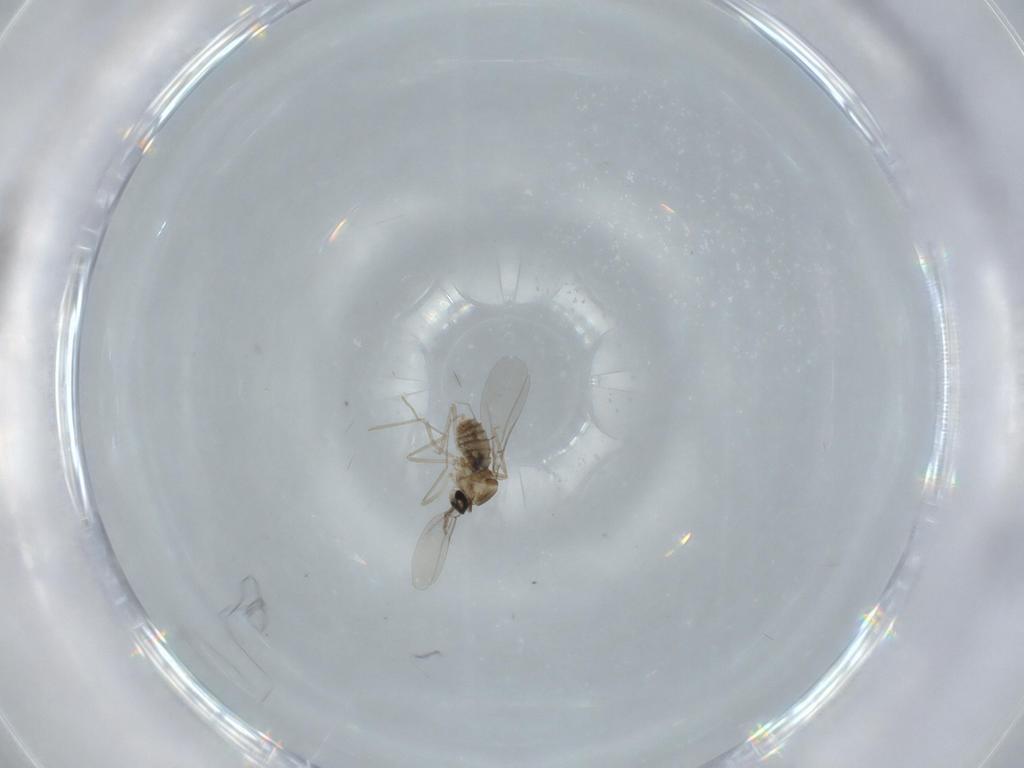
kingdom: Animalia
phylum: Arthropoda
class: Insecta
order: Diptera
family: Cecidomyiidae
